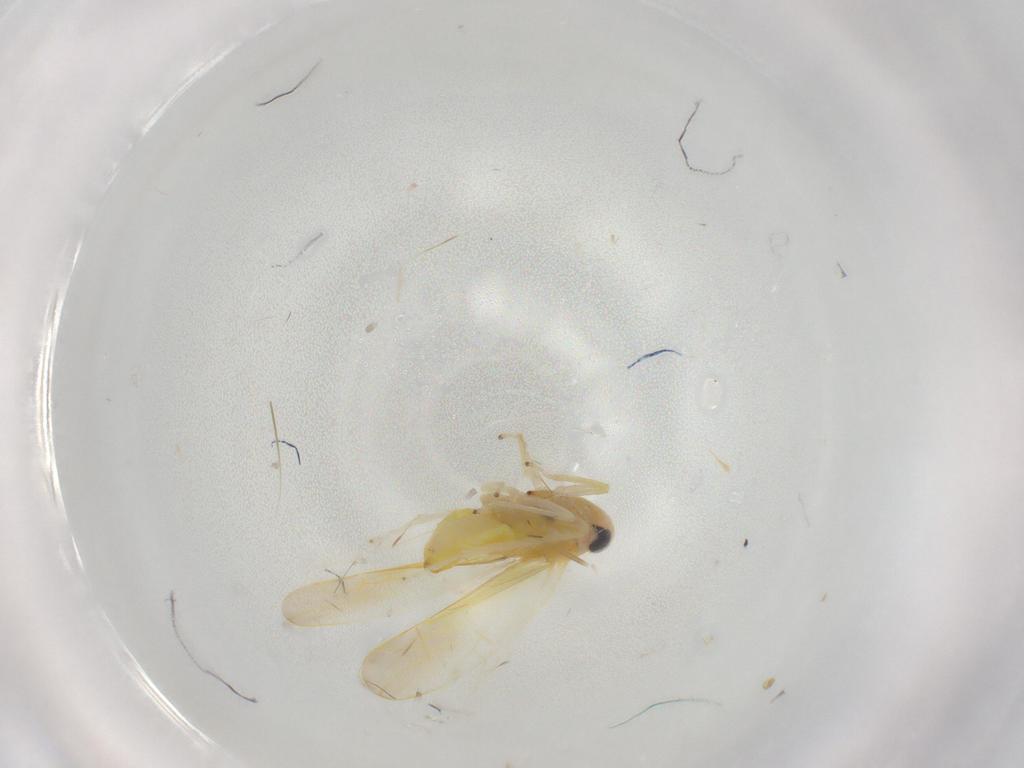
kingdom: Animalia
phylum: Arthropoda
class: Insecta
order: Hemiptera
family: Cicadellidae
